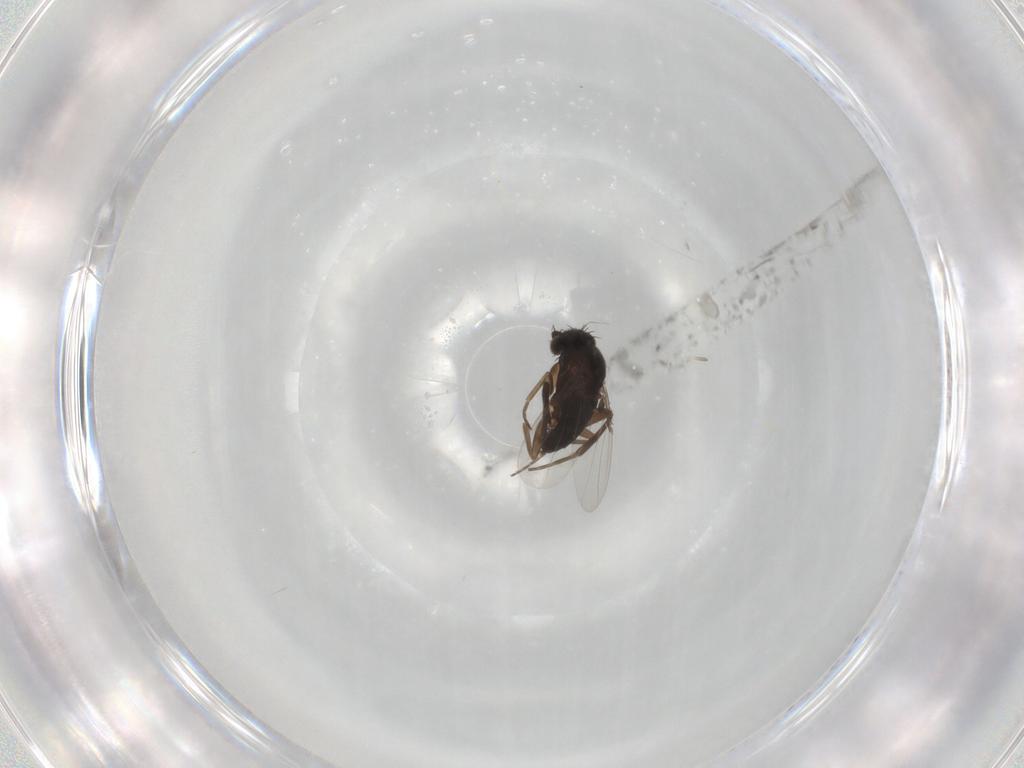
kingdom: Animalia
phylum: Arthropoda
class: Insecta
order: Diptera
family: Phoridae
